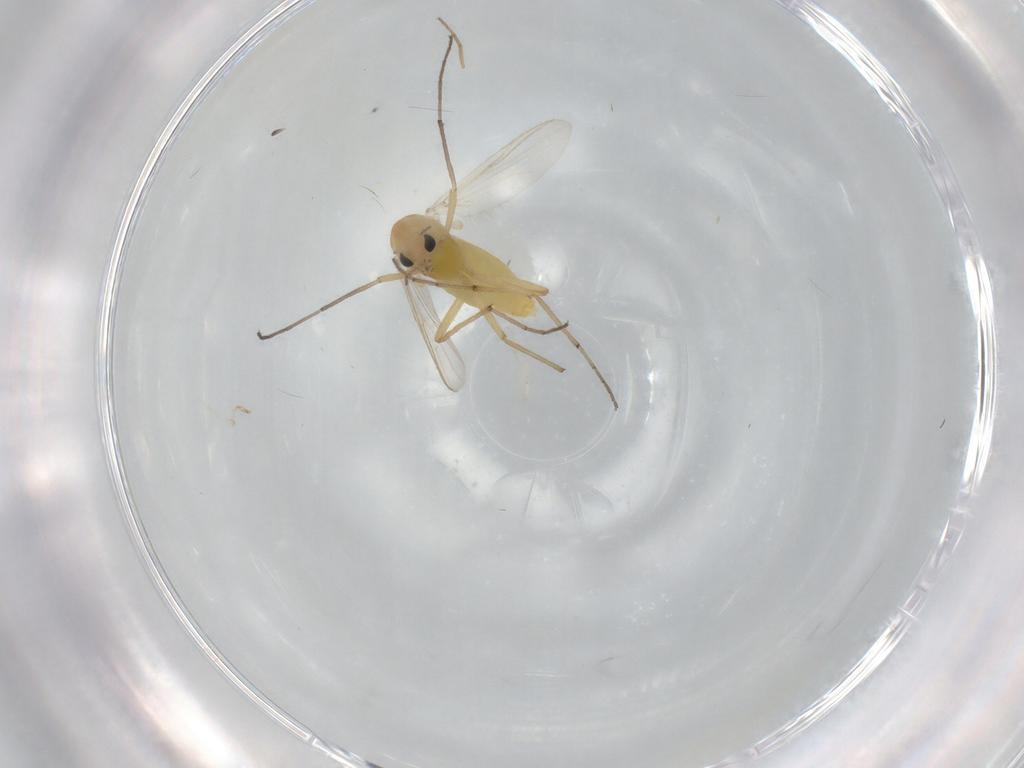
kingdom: Animalia
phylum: Arthropoda
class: Insecta
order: Diptera
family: Chironomidae
